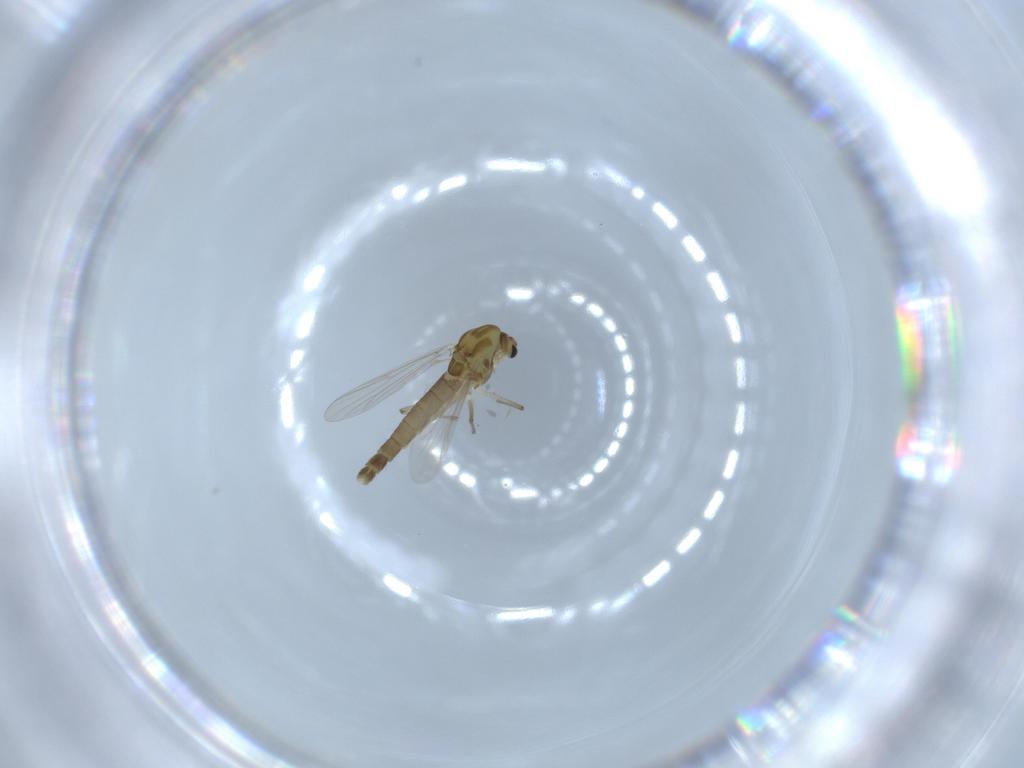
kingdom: Animalia
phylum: Arthropoda
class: Insecta
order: Diptera
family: Chironomidae
